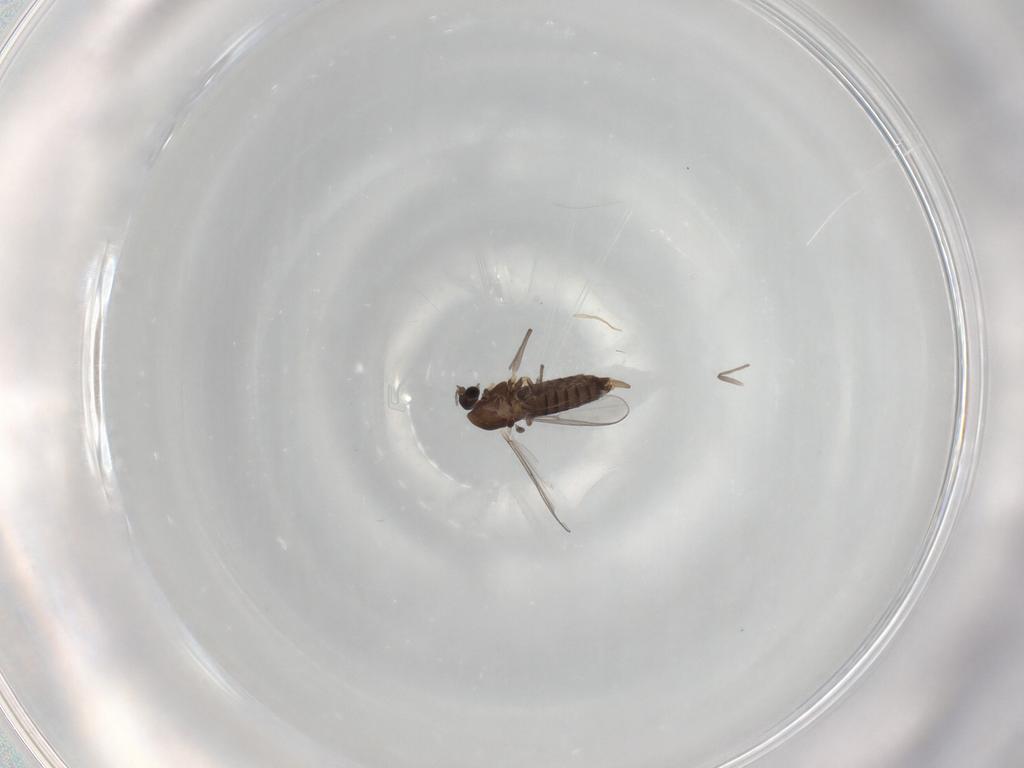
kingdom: Animalia
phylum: Arthropoda
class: Insecta
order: Diptera
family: Chironomidae
